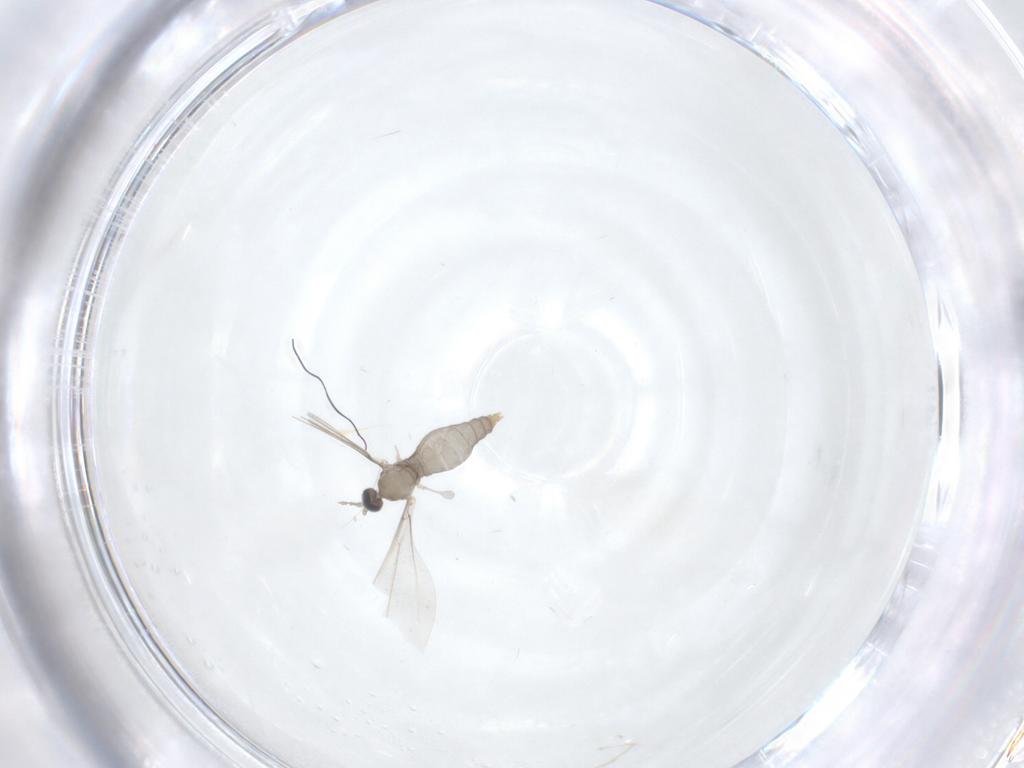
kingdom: Animalia
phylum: Arthropoda
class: Insecta
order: Diptera
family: Cecidomyiidae
